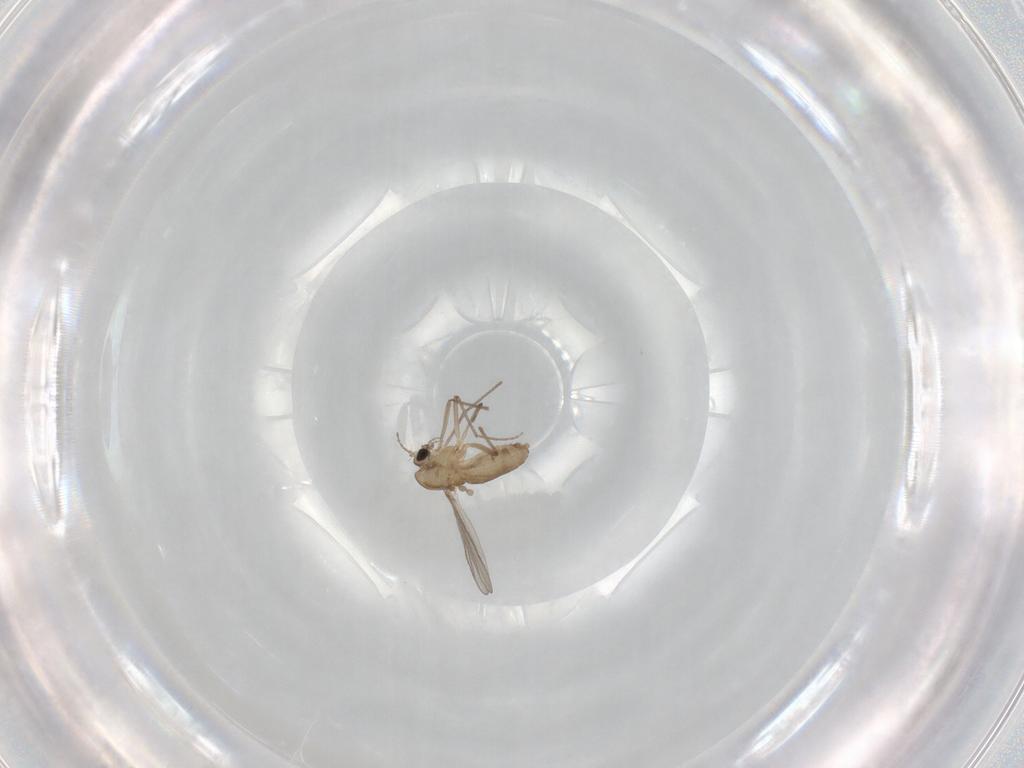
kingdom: Animalia
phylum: Arthropoda
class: Insecta
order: Diptera
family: Chironomidae
